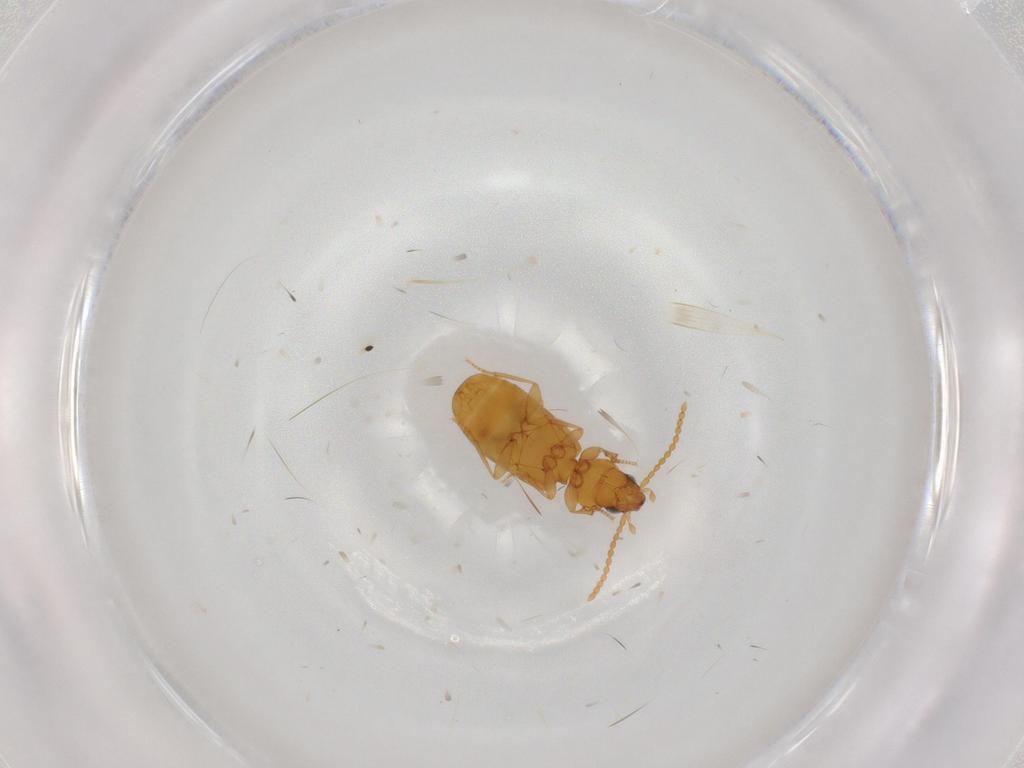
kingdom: Animalia
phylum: Arthropoda
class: Insecta
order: Coleoptera
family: Carabidae
